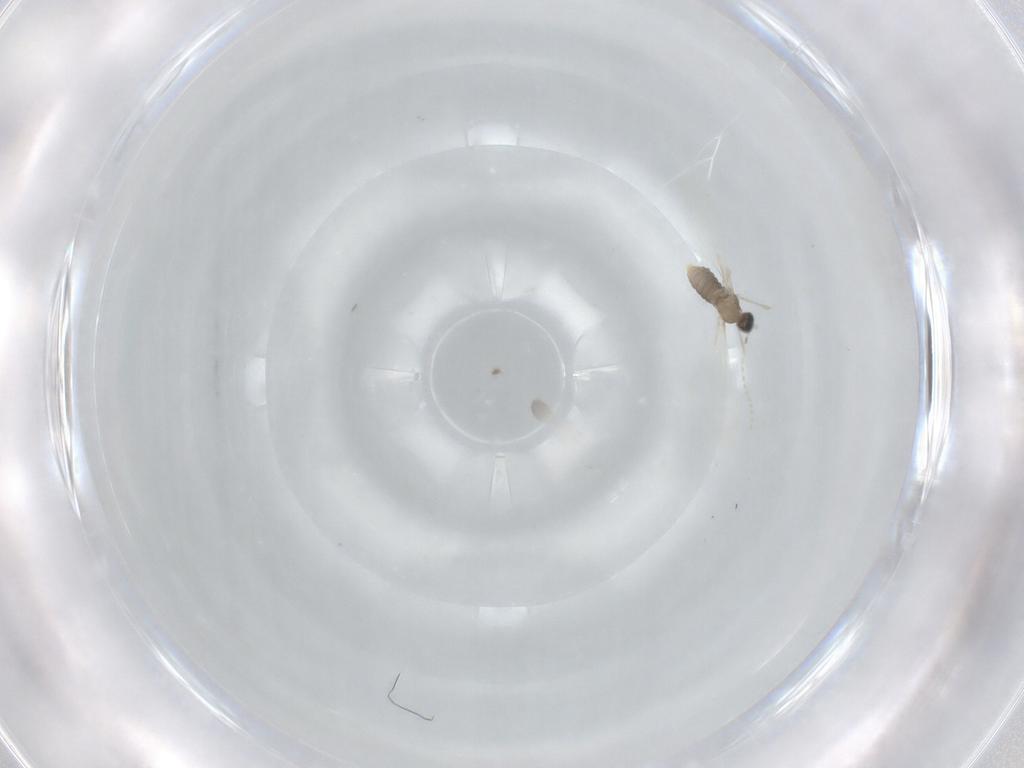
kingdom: Animalia
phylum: Arthropoda
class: Insecta
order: Diptera
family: Cecidomyiidae
